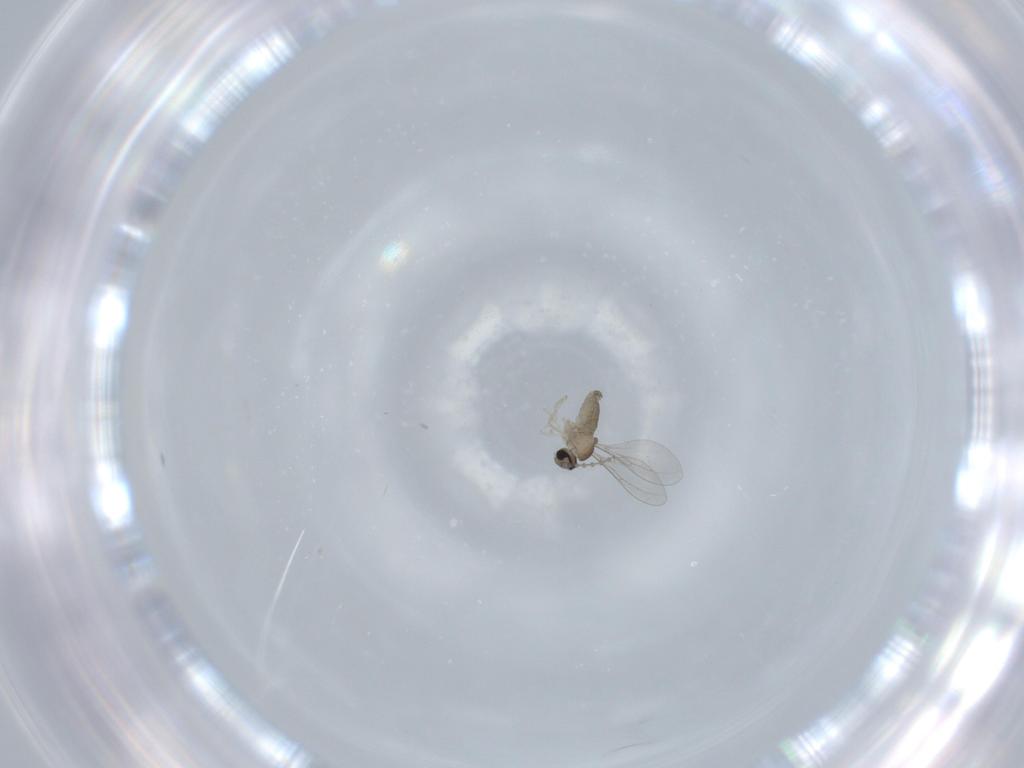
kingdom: Animalia
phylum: Arthropoda
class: Insecta
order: Diptera
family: Cecidomyiidae
